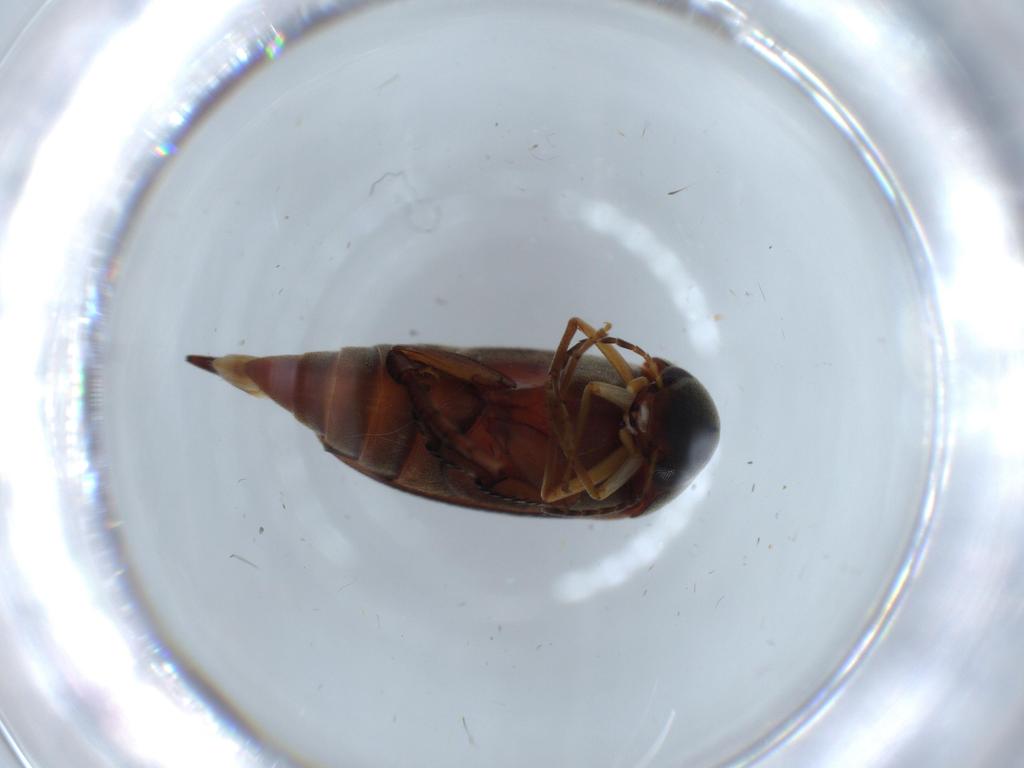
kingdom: Animalia
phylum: Arthropoda
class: Insecta
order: Coleoptera
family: Mordellidae
